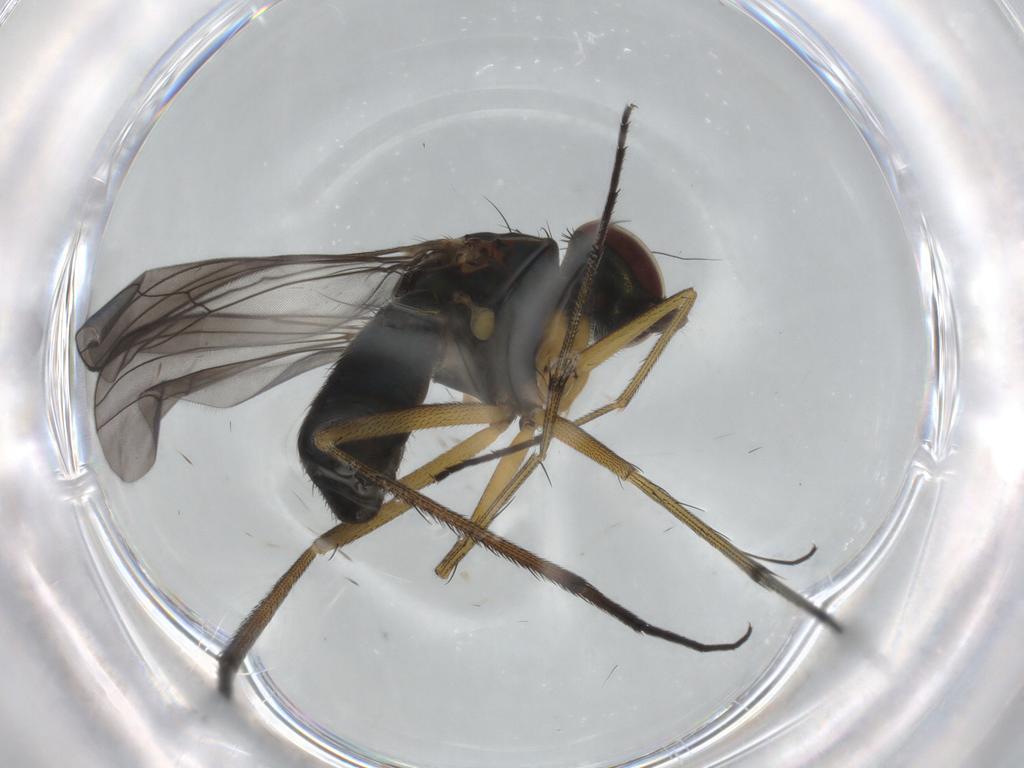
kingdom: Animalia
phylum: Arthropoda
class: Insecta
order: Diptera
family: Dolichopodidae
